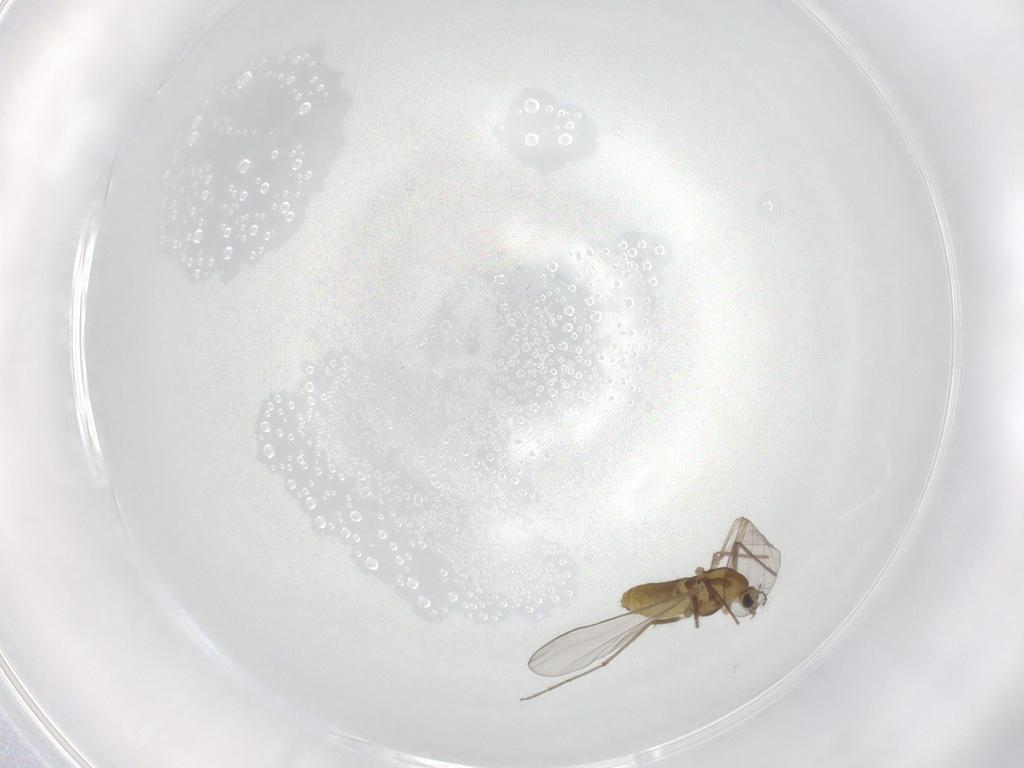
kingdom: Animalia
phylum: Arthropoda
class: Insecta
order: Diptera
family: Chironomidae
